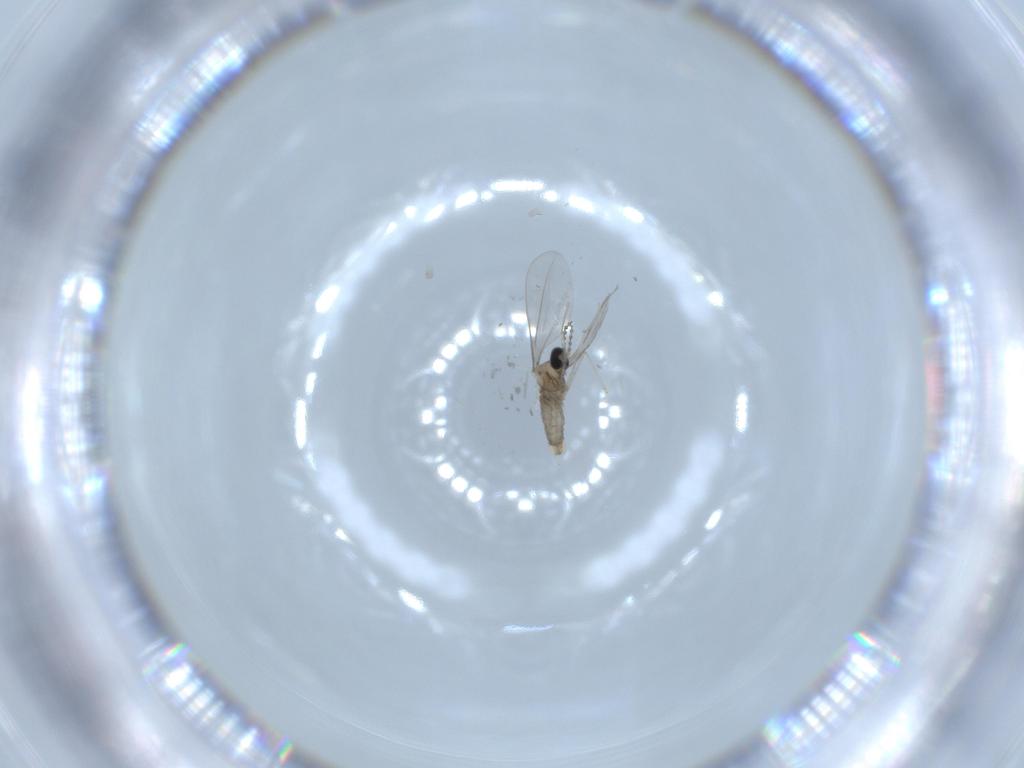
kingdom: Animalia
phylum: Arthropoda
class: Insecta
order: Diptera
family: Cecidomyiidae
